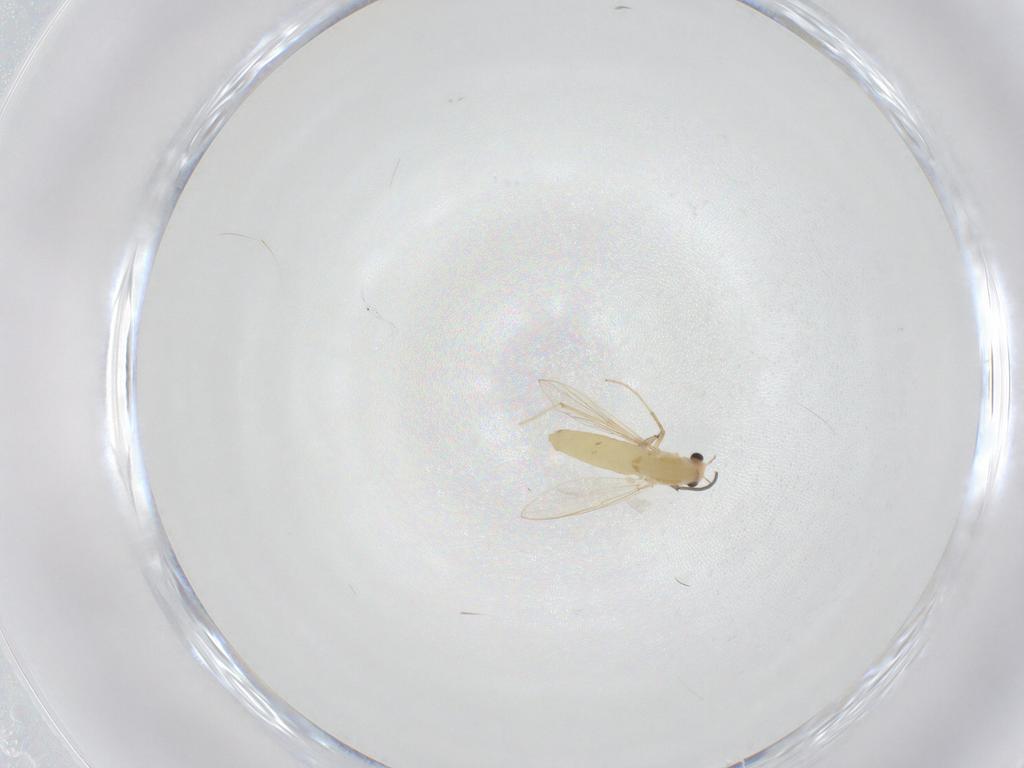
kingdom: Animalia
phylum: Arthropoda
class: Insecta
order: Diptera
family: Chironomidae
